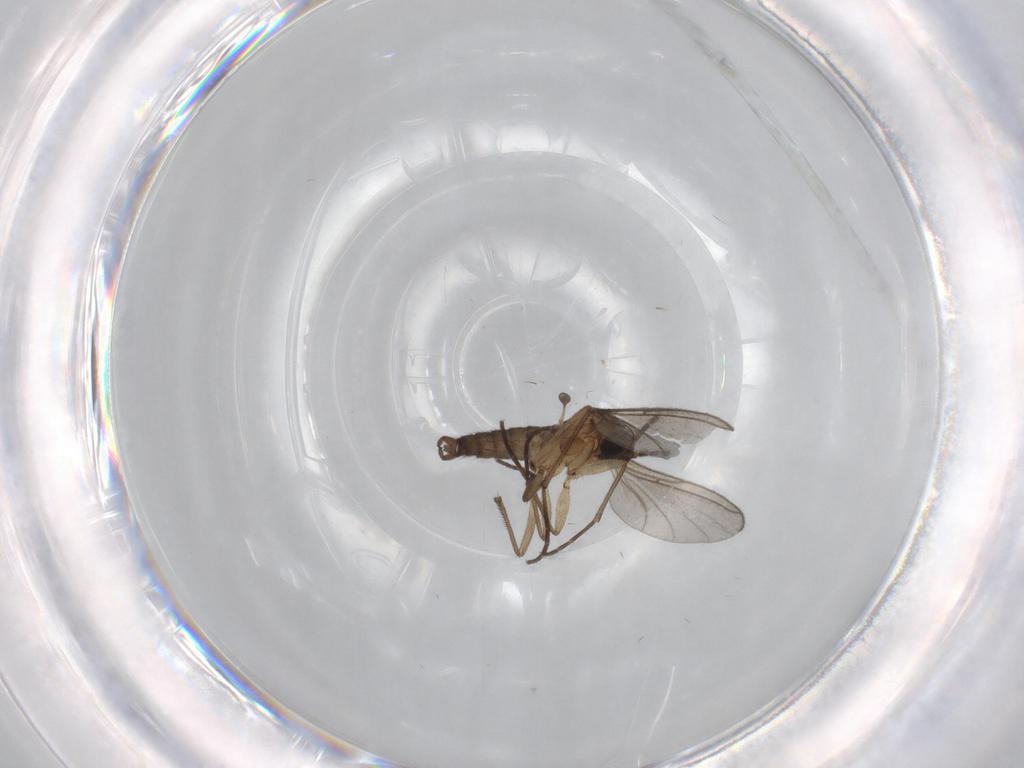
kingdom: Animalia
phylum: Arthropoda
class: Insecta
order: Diptera
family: Sciaridae
